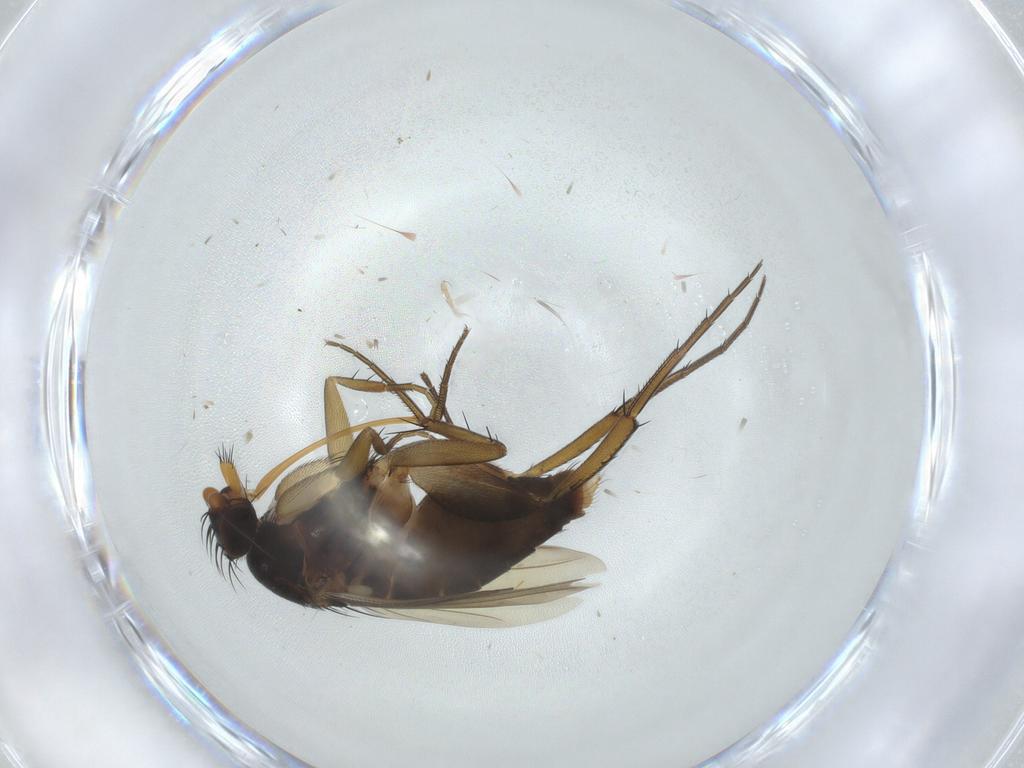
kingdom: Animalia
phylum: Arthropoda
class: Insecta
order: Diptera
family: Phoridae
